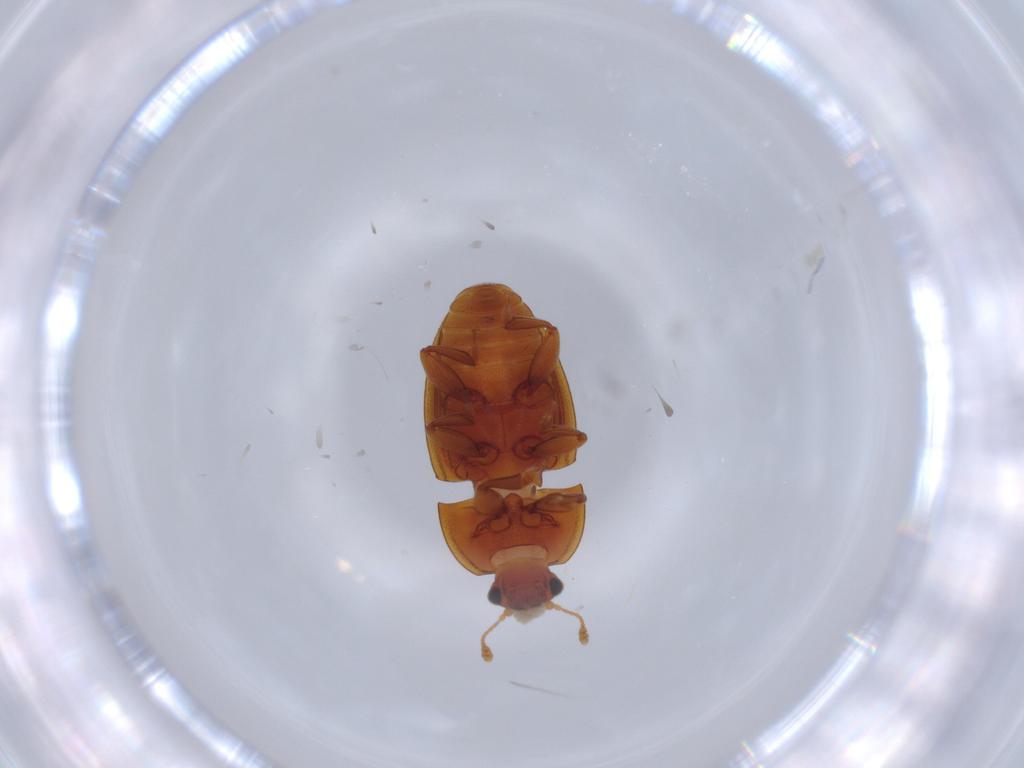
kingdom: Animalia
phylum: Arthropoda
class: Insecta
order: Coleoptera
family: Nitidulidae
